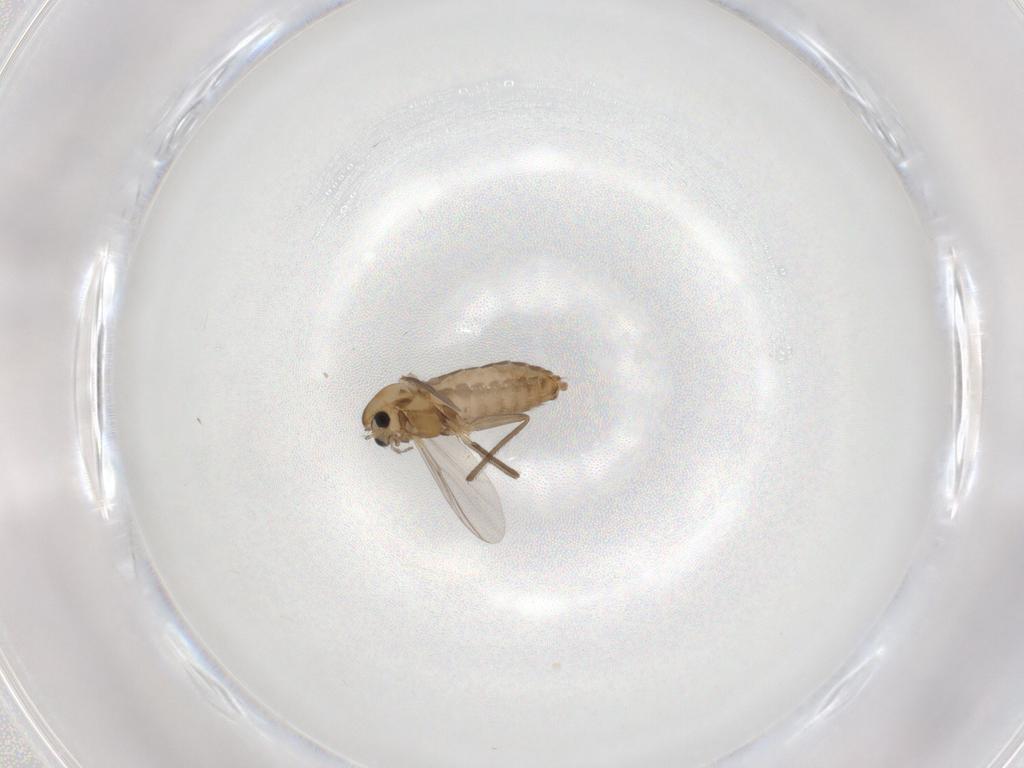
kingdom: Animalia
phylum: Arthropoda
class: Insecta
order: Diptera
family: Chironomidae
